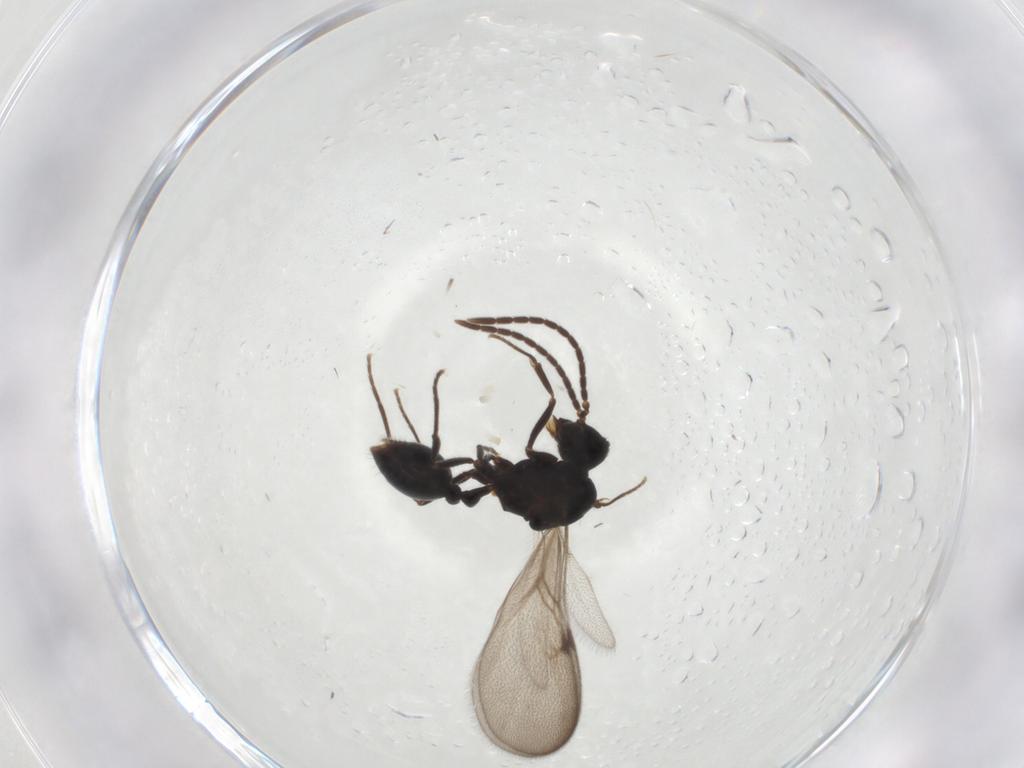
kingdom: Animalia
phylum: Arthropoda
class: Insecta
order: Hymenoptera
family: Formicidae
